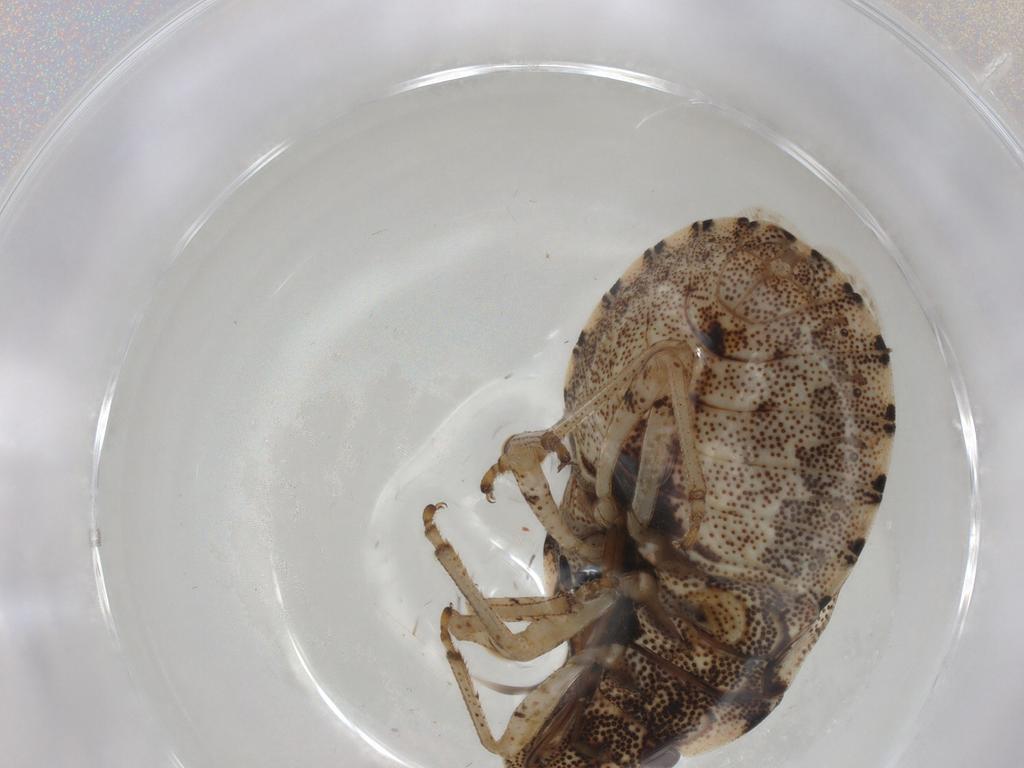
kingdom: Animalia
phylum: Arthropoda
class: Insecta
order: Hemiptera
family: Pentatomidae
